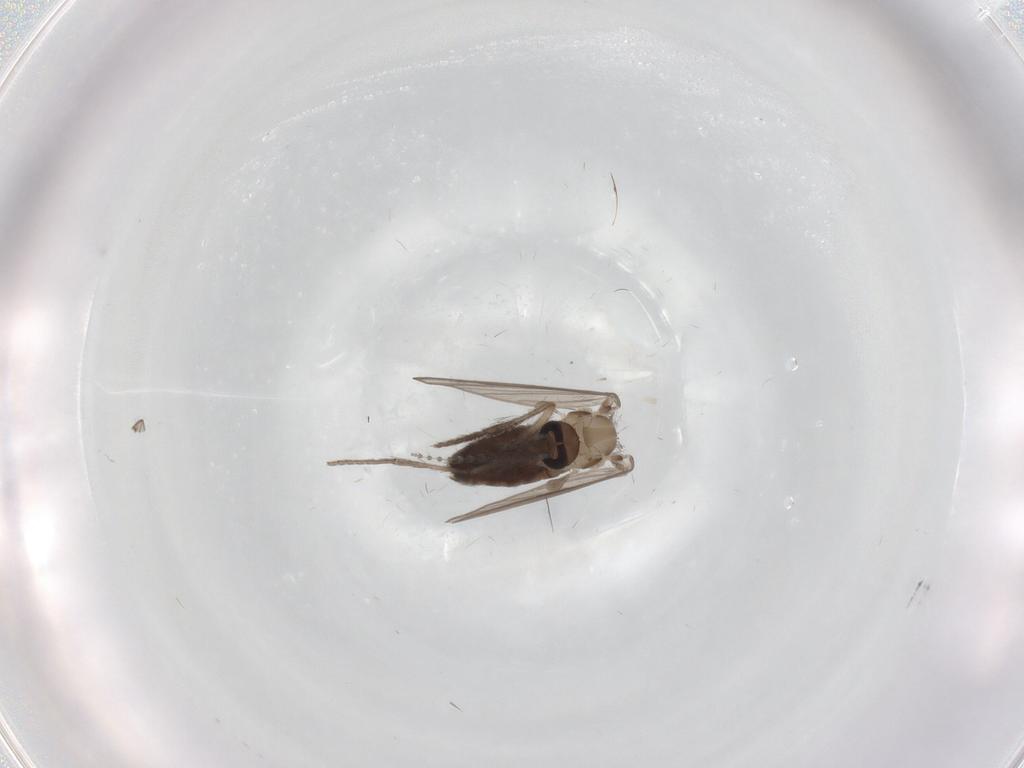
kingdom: Animalia
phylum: Arthropoda
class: Insecta
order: Diptera
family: Psychodidae
